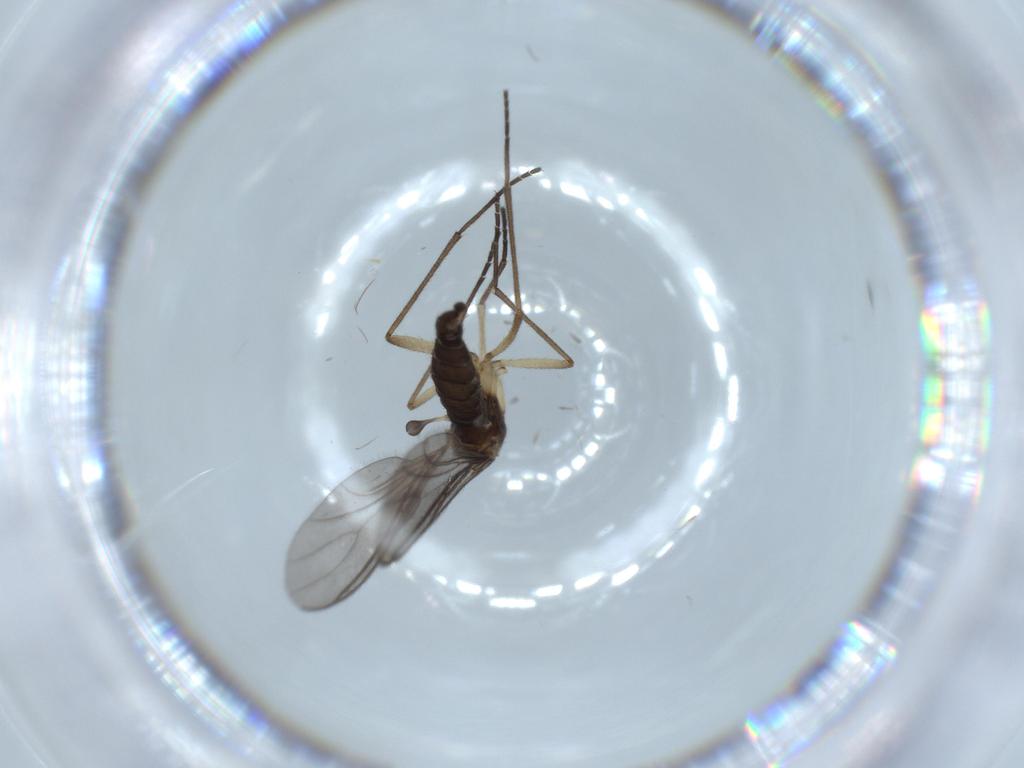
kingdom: Animalia
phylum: Arthropoda
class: Insecta
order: Diptera
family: Sciaridae
